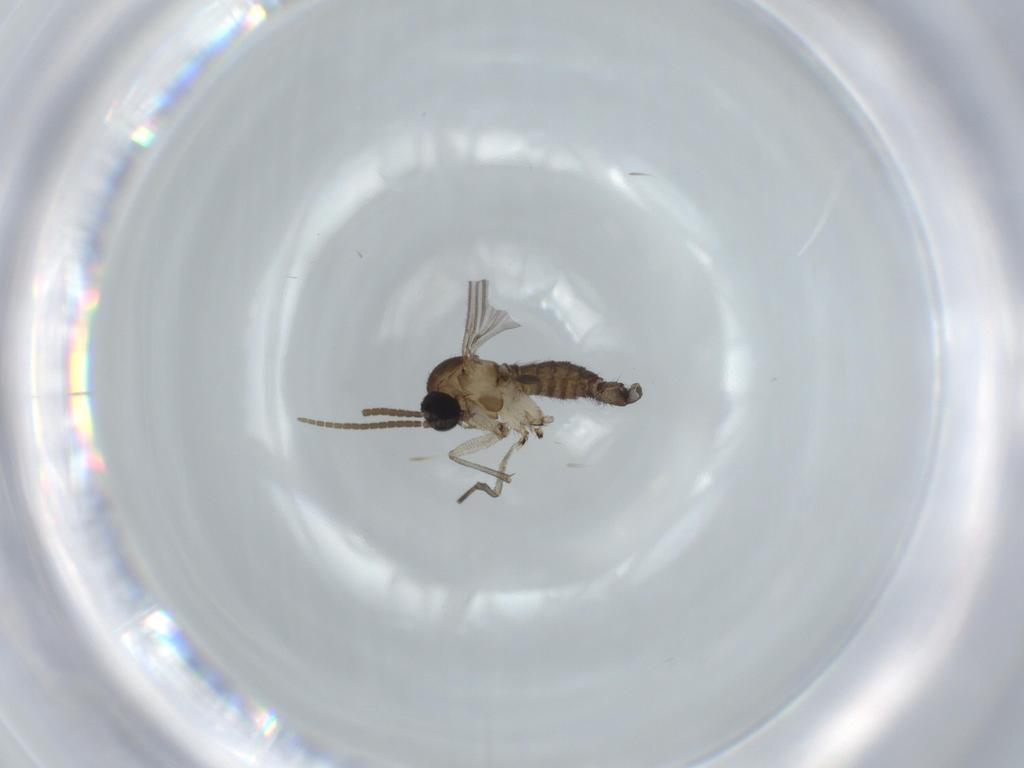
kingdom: Animalia
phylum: Arthropoda
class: Insecta
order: Diptera
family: Sciaridae
